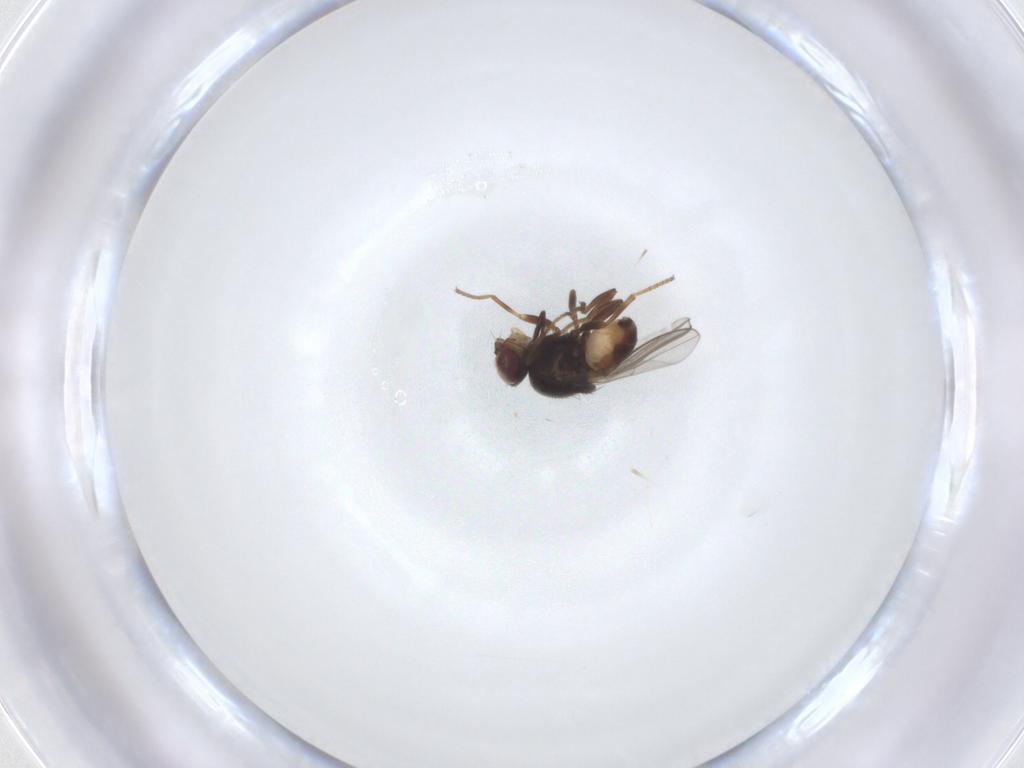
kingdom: Animalia
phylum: Arthropoda
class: Insecta
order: Diptera
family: Chloropidae
